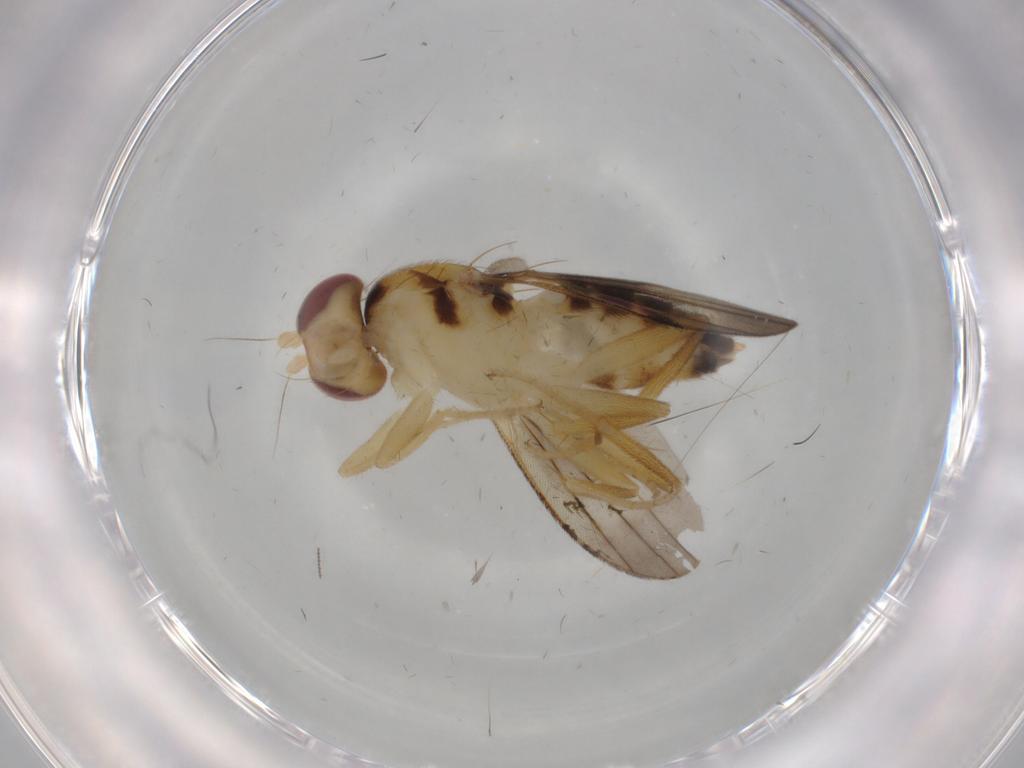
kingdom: Animalia
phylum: Arthropoda
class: Insecta
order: Diptera
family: Clusiidae
